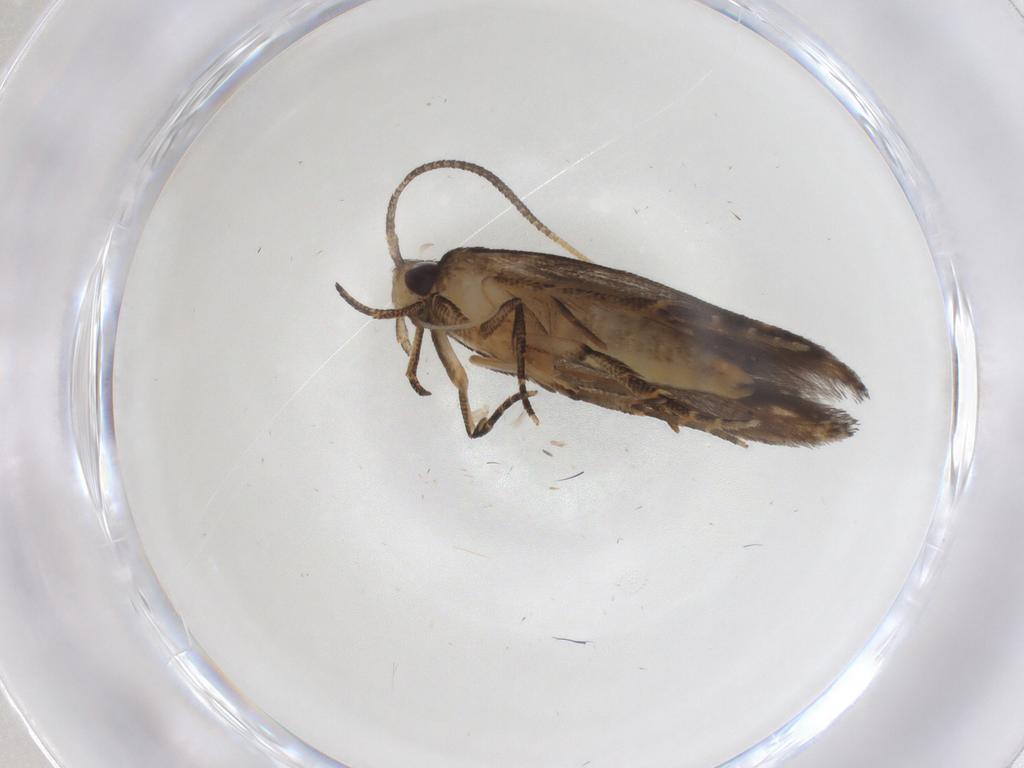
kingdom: Animalia
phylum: Arthropoda
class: Insecta
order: Lepidoptera
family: Cosmopterigidae
